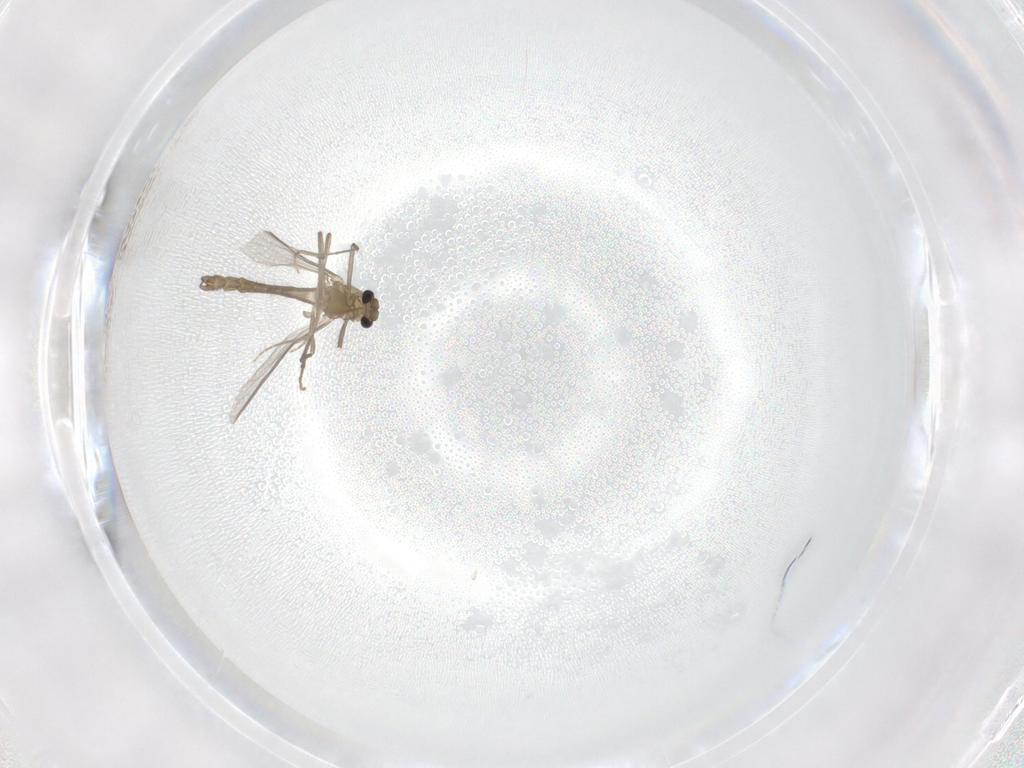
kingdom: Animalia
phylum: Arthropoda
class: Insecta
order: Diptera
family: Chironomidae
